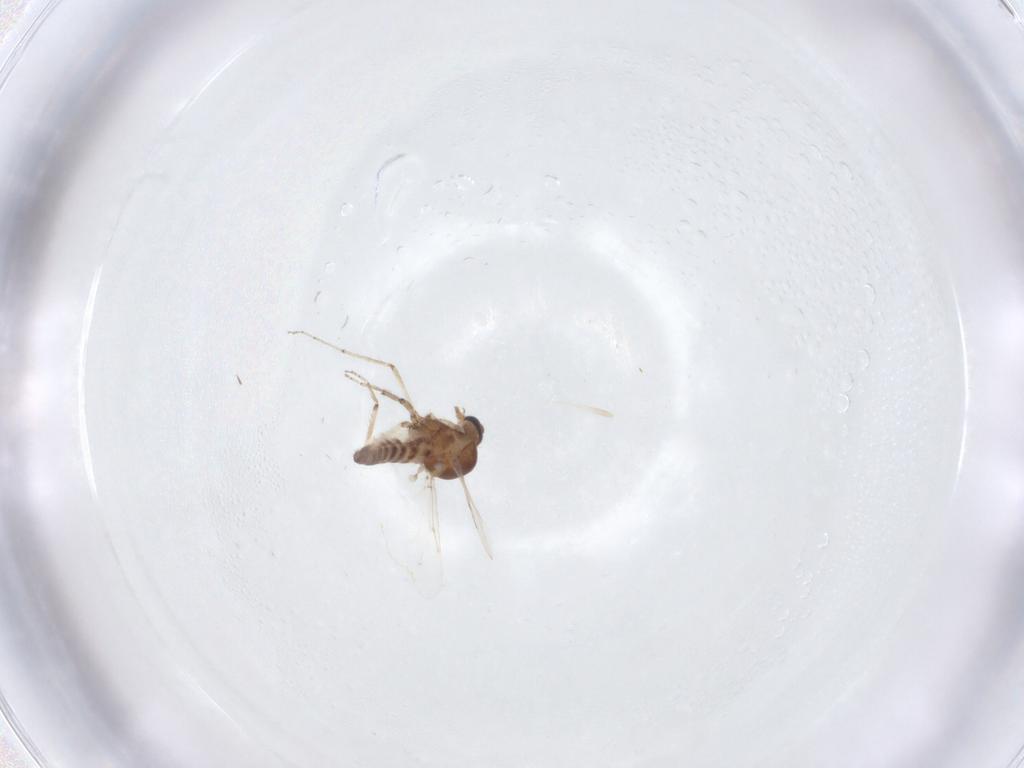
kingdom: Animalia
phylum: Arthropoda
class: Insecta
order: Diptera
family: Ceratopogonidae
